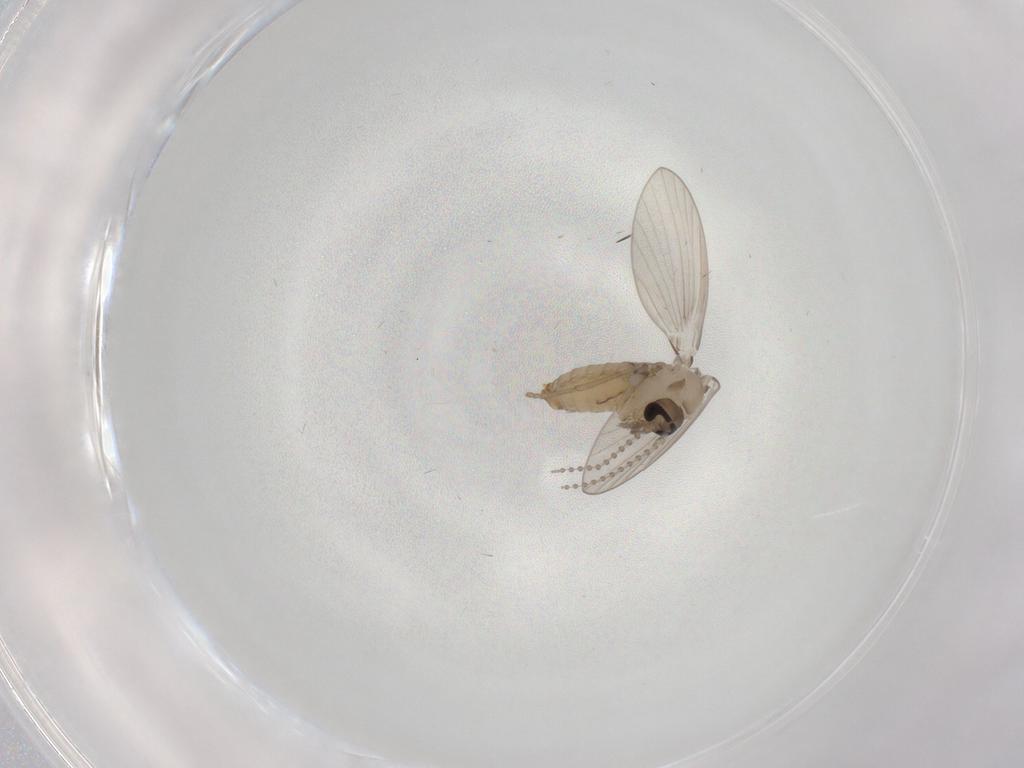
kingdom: Animalia
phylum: Arthropoda
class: Insecta
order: Diptera
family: Psychodidae
